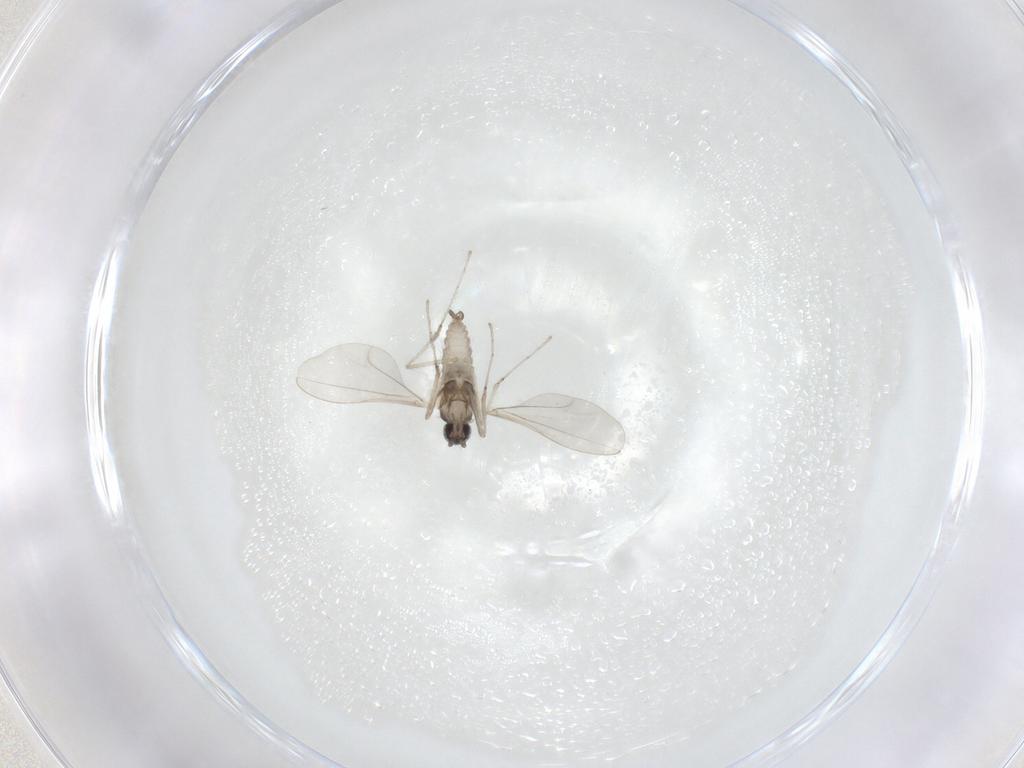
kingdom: Animalia
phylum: Arthropoda
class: Insecta
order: Diptera
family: Cecidomyiidae
